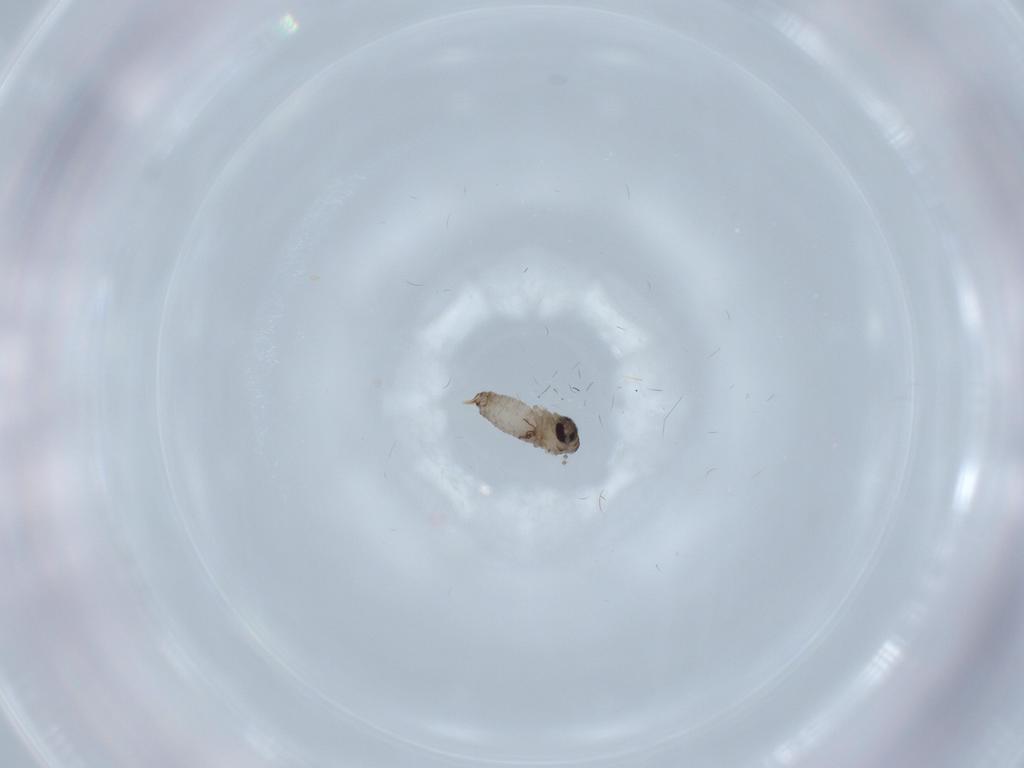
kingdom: Animalia
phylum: Arthropoda
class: Insecta
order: Diptera
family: Psychodidae
